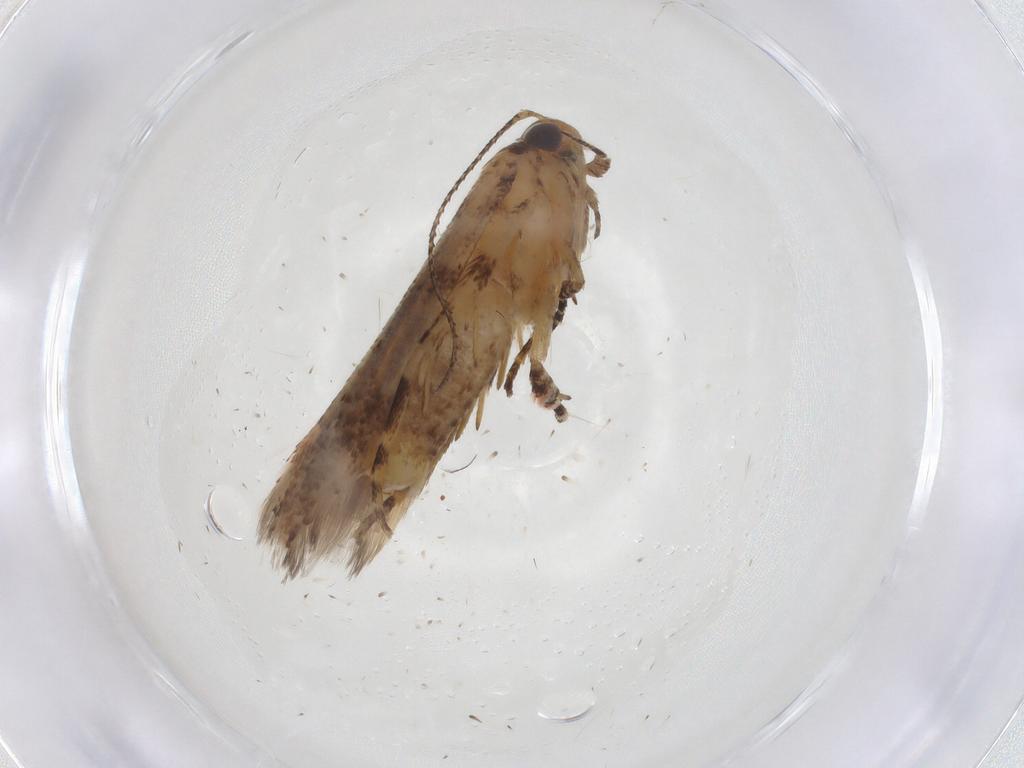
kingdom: Animalia
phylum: Arthropoda
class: Insecta
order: Lepidoptera
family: Gelechiidae
